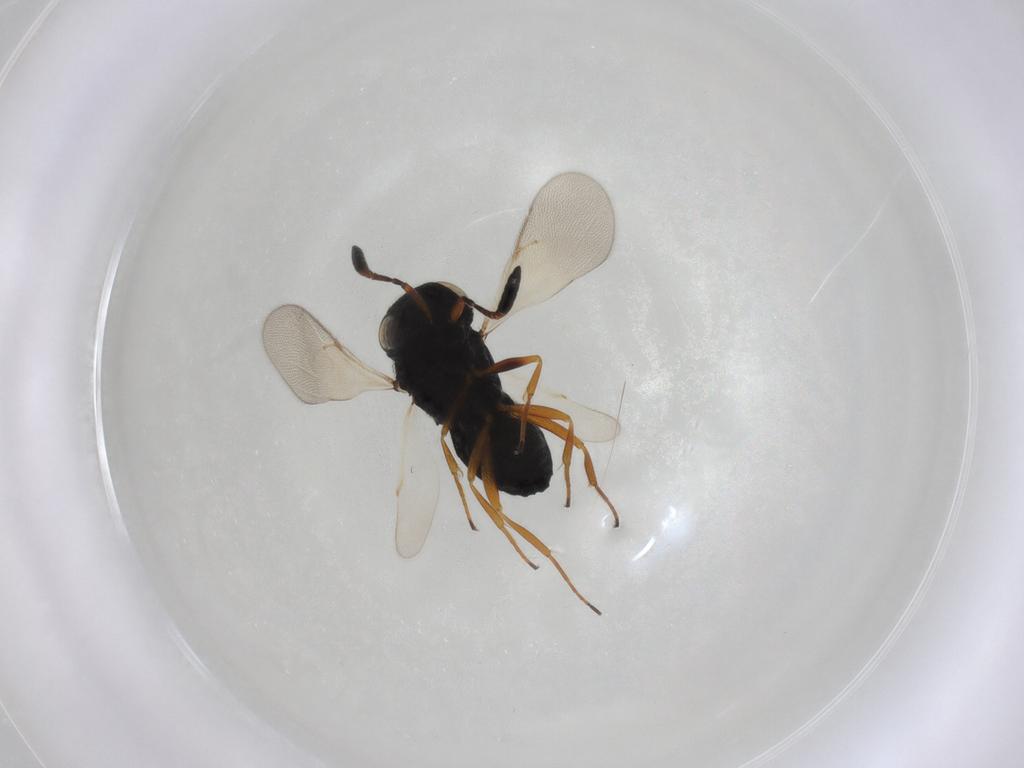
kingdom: Animalia
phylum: Arthropoda
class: Insecta
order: Hymenoptera
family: Scelionidae
